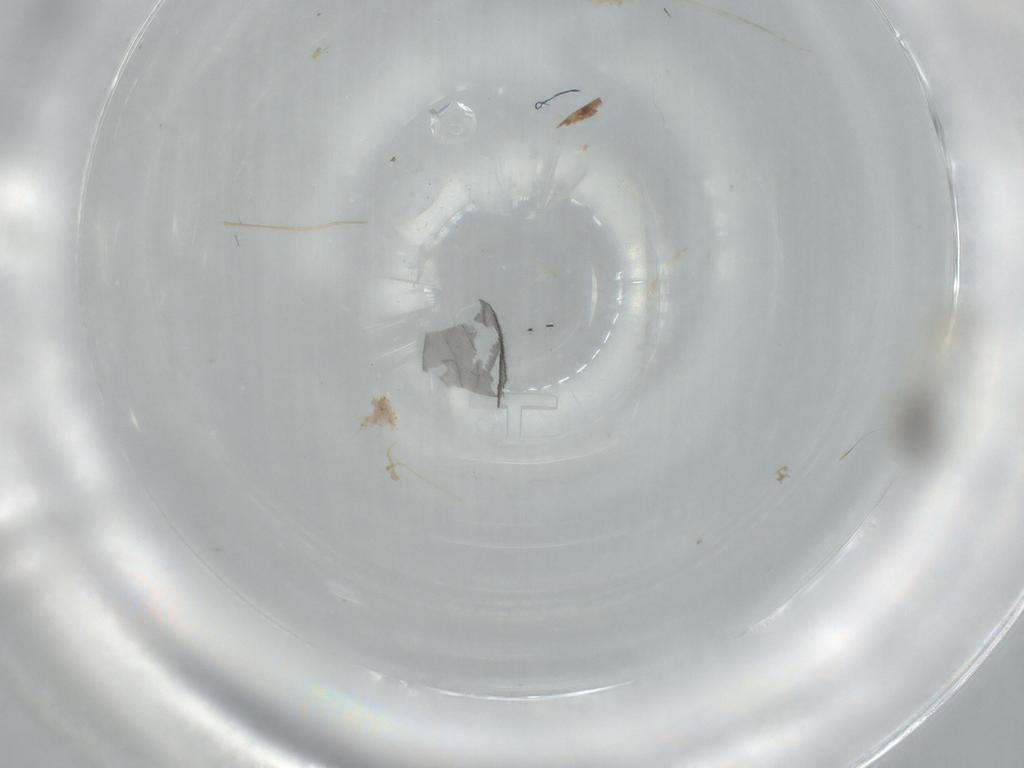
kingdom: Animalia
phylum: Arthropoda
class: Insecta
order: Diptera
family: Cecidomyiidae
